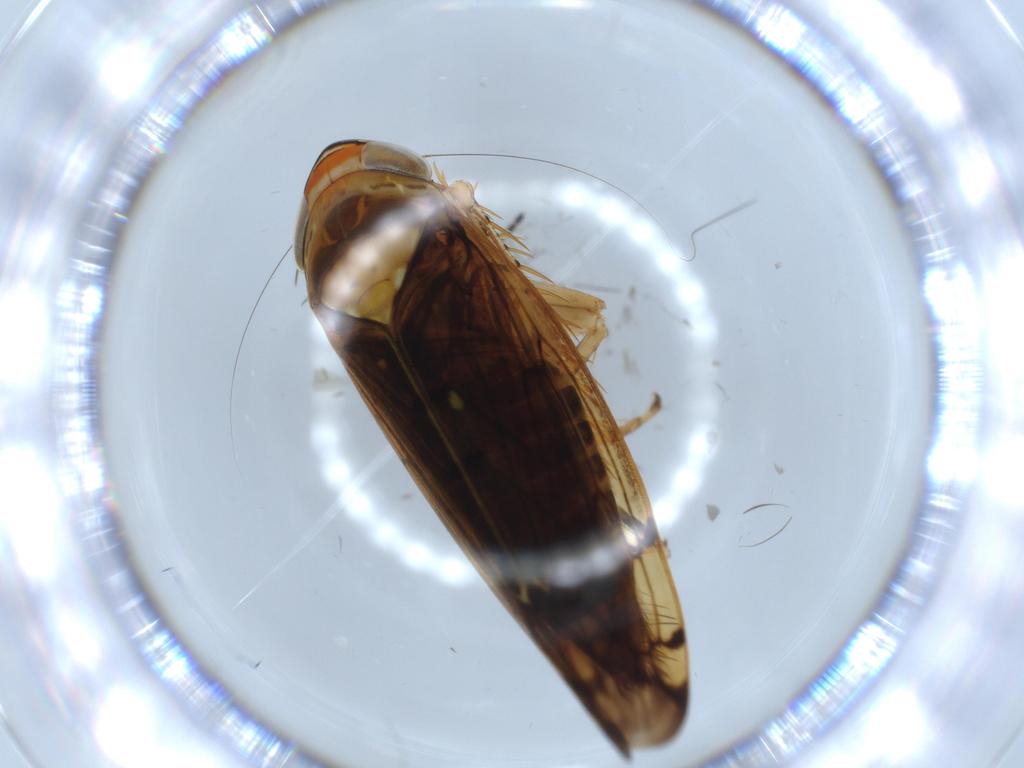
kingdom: Animalia
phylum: Arthropoda
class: Insecta
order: Hemiptera
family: Cicadellidae
